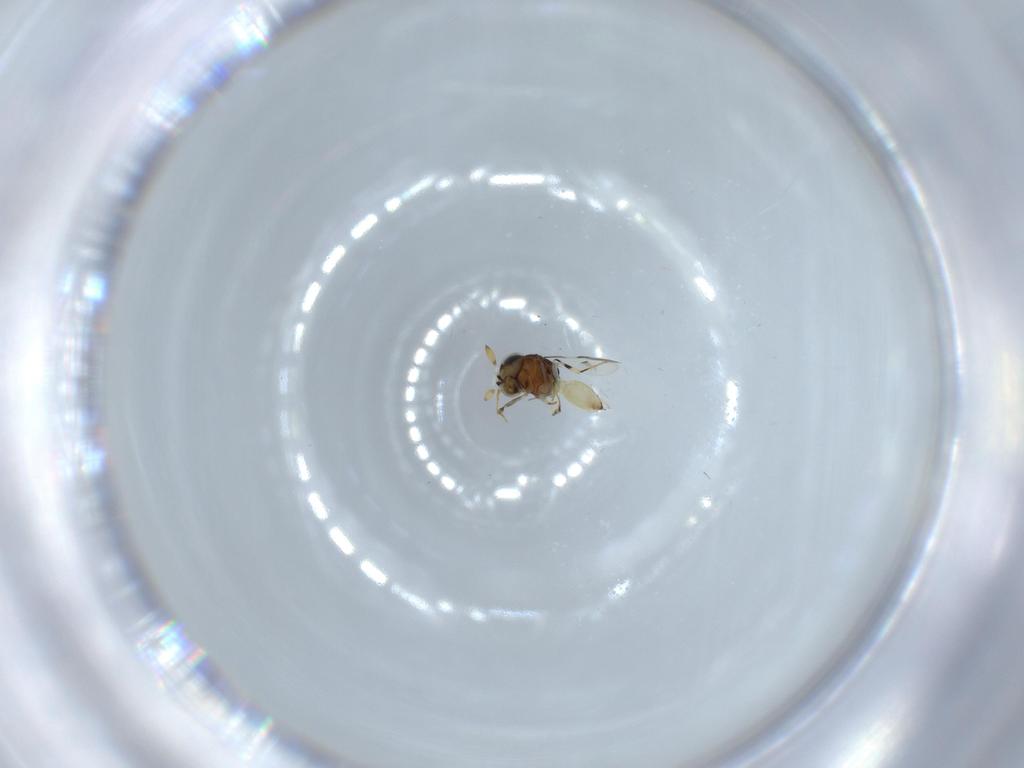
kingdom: Animalia
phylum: Arthropoda
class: Insecta
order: Hymenoptera
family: Scelionidae
